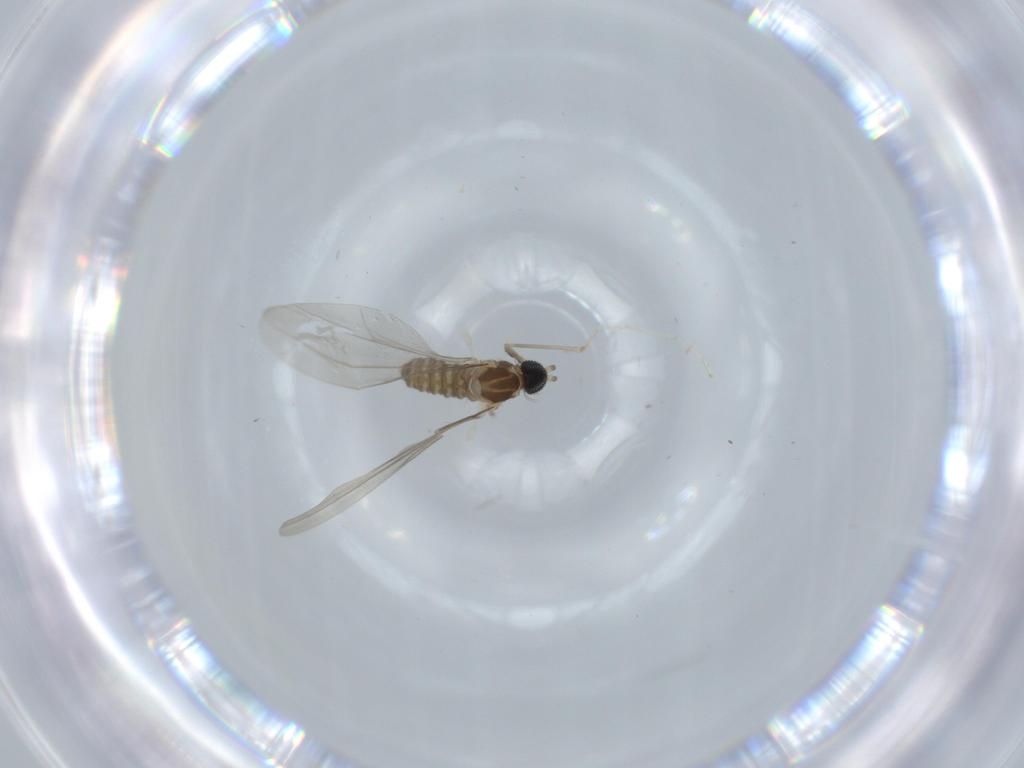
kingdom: Animalia
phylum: Arthropoda
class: Insecta
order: Diptera
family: Cecidomyiidae
